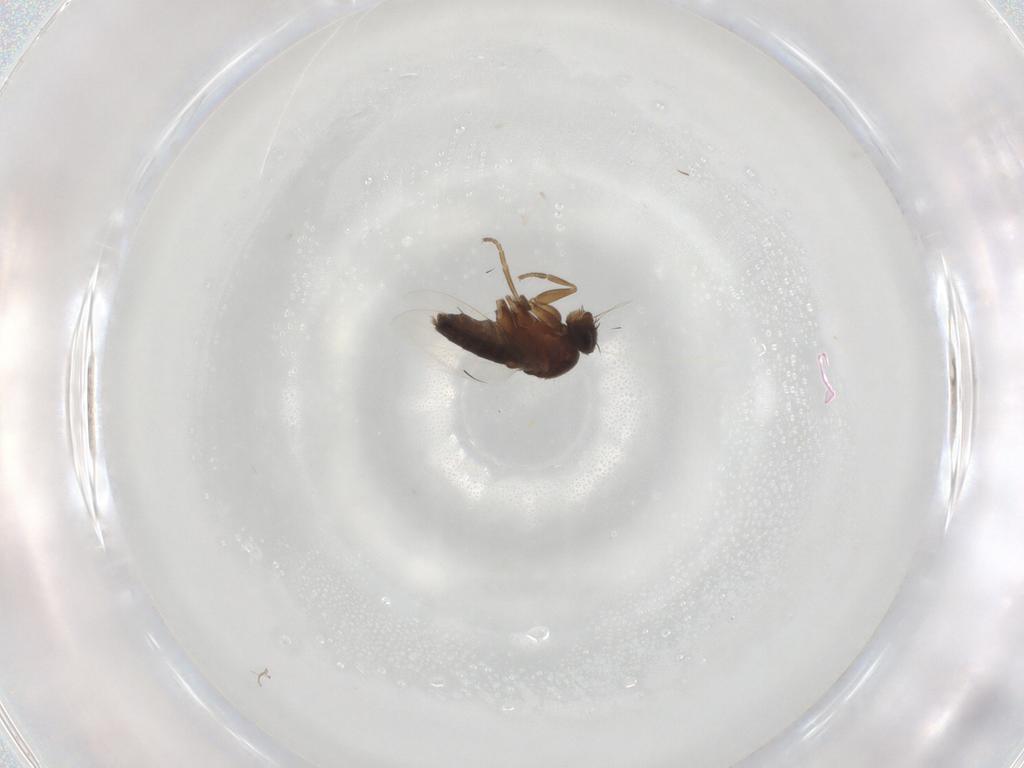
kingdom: Animalia
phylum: Arthropoda
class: Insecta
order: Diptera
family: Phoridae
